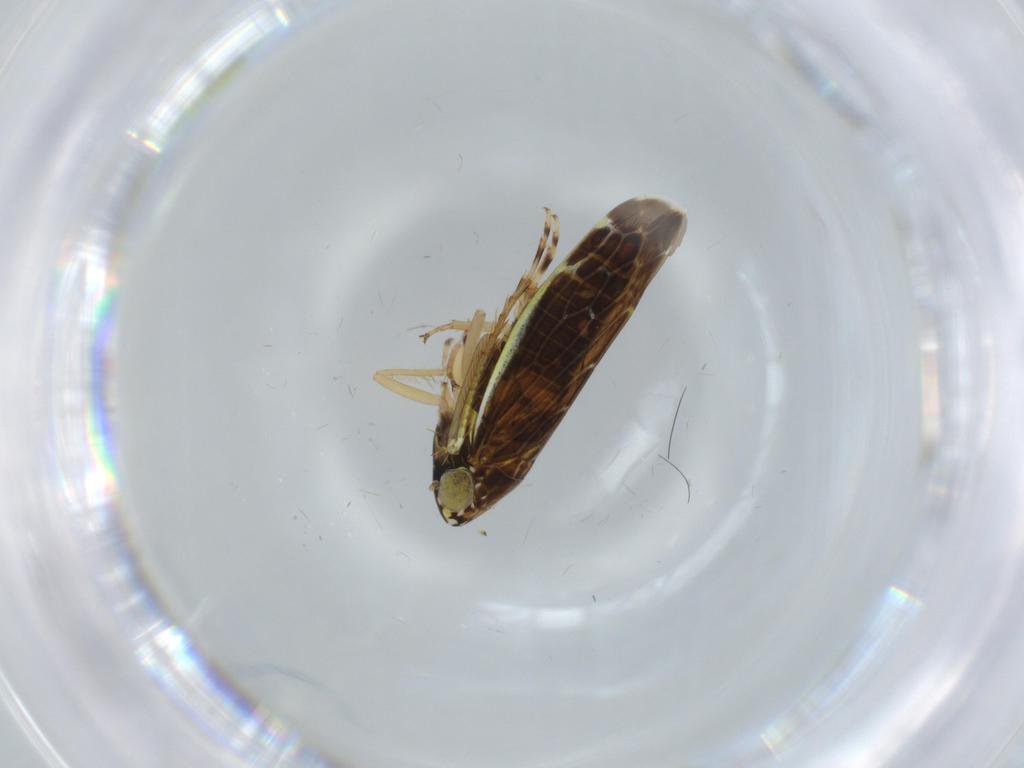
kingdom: Animalia
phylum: Arthropoda
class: Insecta
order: Hemiptera
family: Cicadellidae
